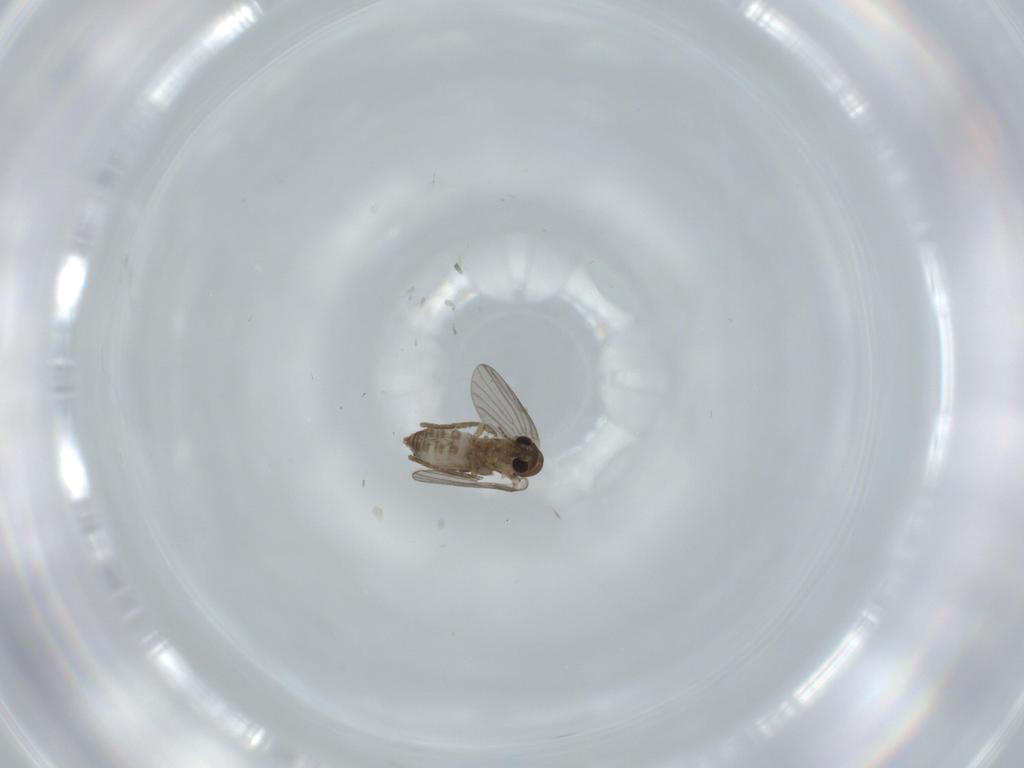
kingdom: Animalia
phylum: Arthropoda
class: Insecta
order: Diptera
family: Psychodidae
